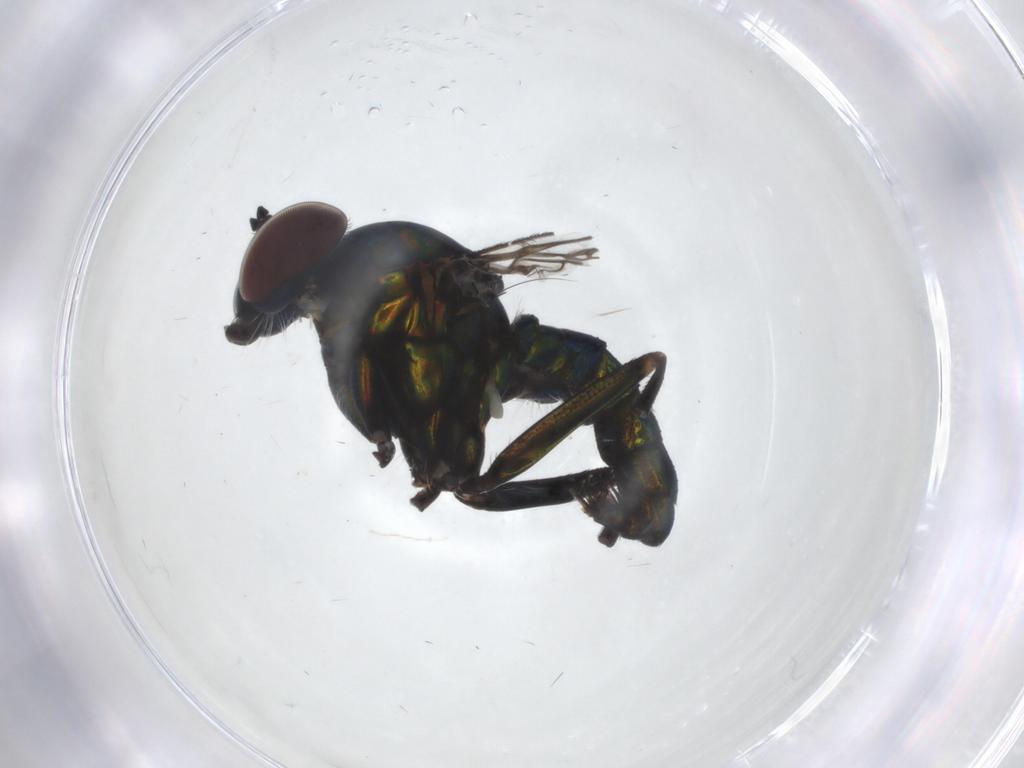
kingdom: Animalia
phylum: Arthropoda
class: Insecta
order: Diptera
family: Dolichopodidae
